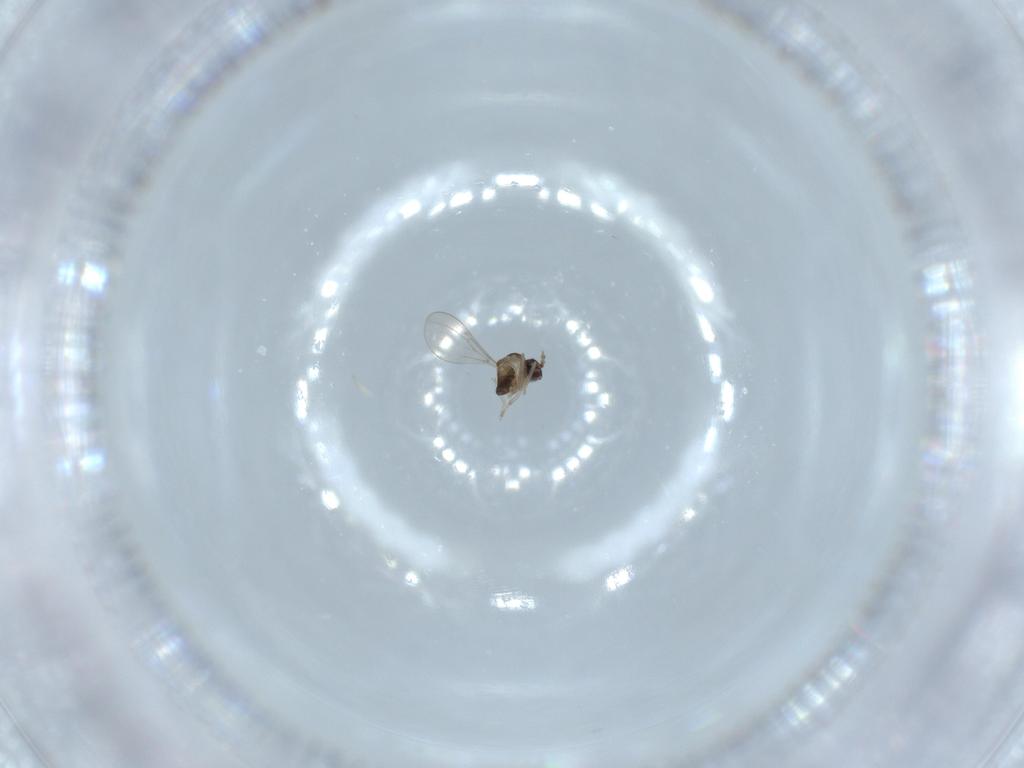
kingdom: Animalia
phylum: Arthropoda
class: Insecta
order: Diptera
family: Cecidomyiidae
